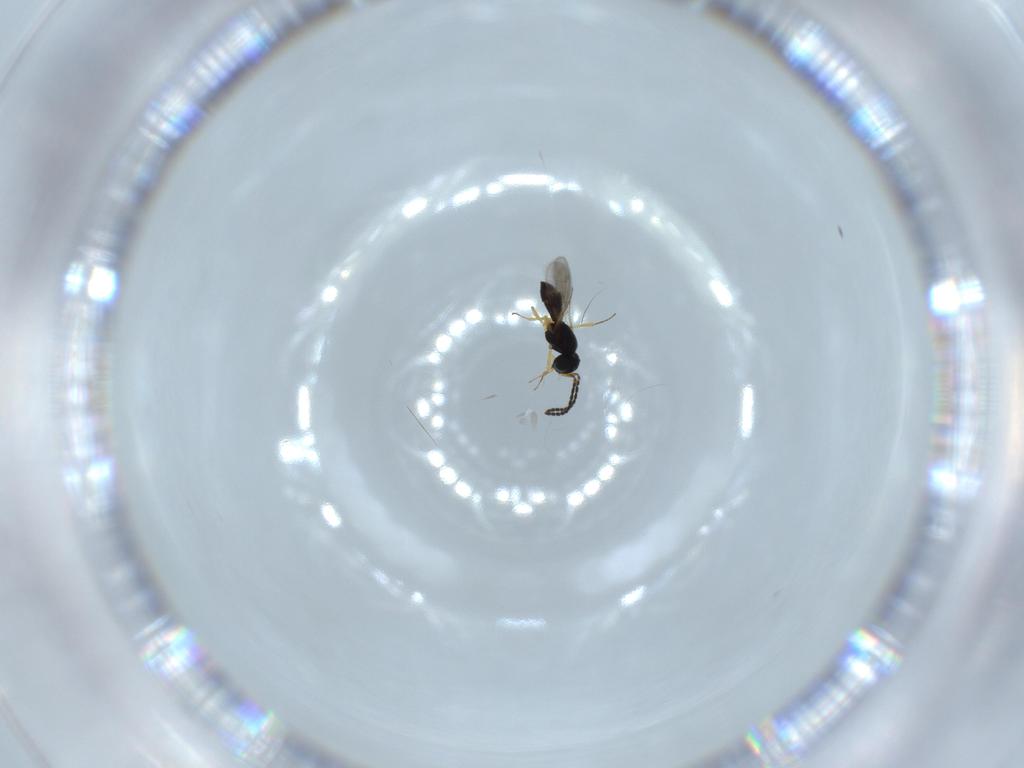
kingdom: Animalia
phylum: Arthropoda
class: Insecta
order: Hymenoptera
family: Scelionidae
